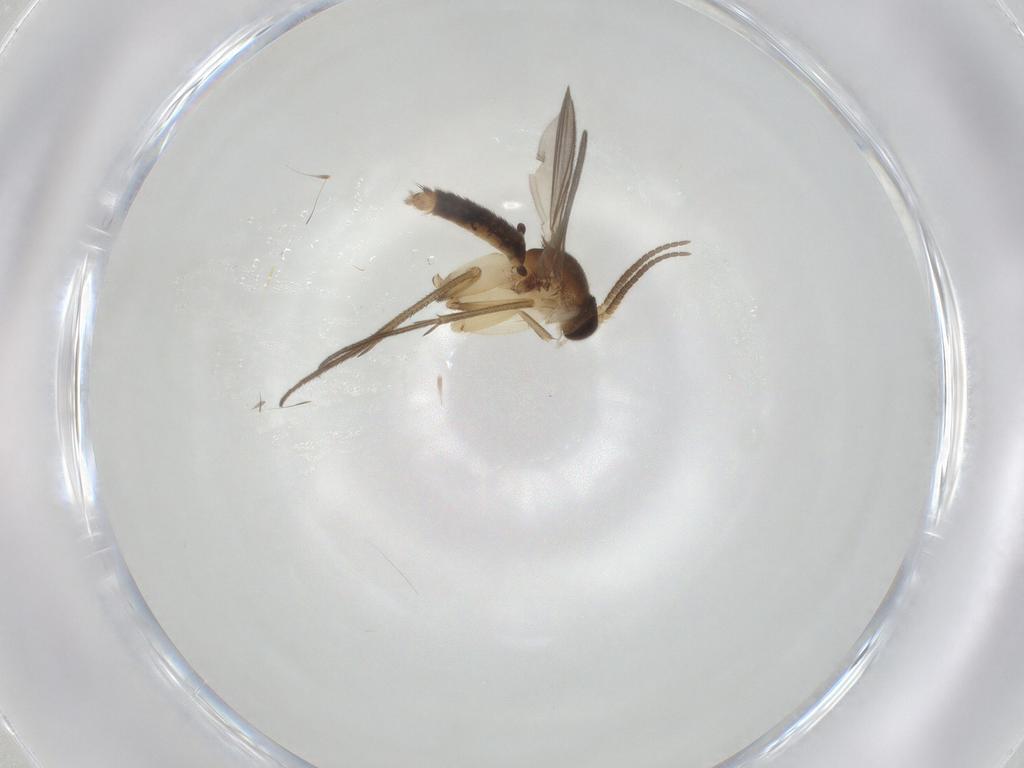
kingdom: Animalia
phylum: Arthropoda
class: Insecta
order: Diptera
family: Mycetophilidae
